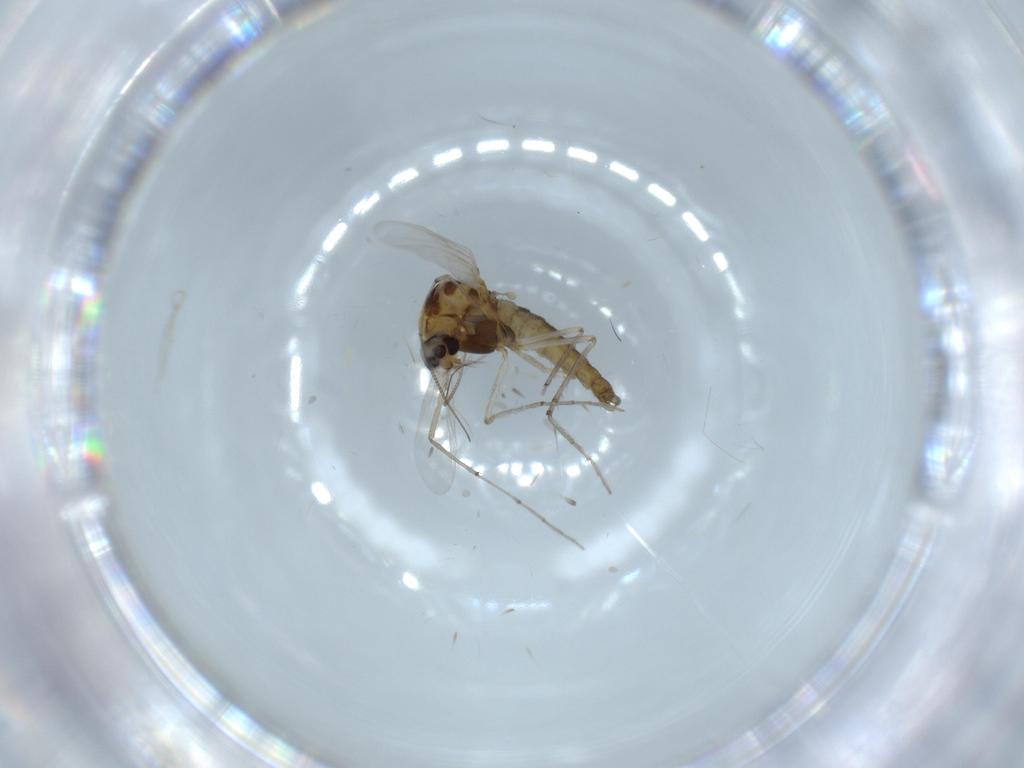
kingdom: Animalia
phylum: Arthropoda
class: Insecta
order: Diptera
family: Chironomidae
